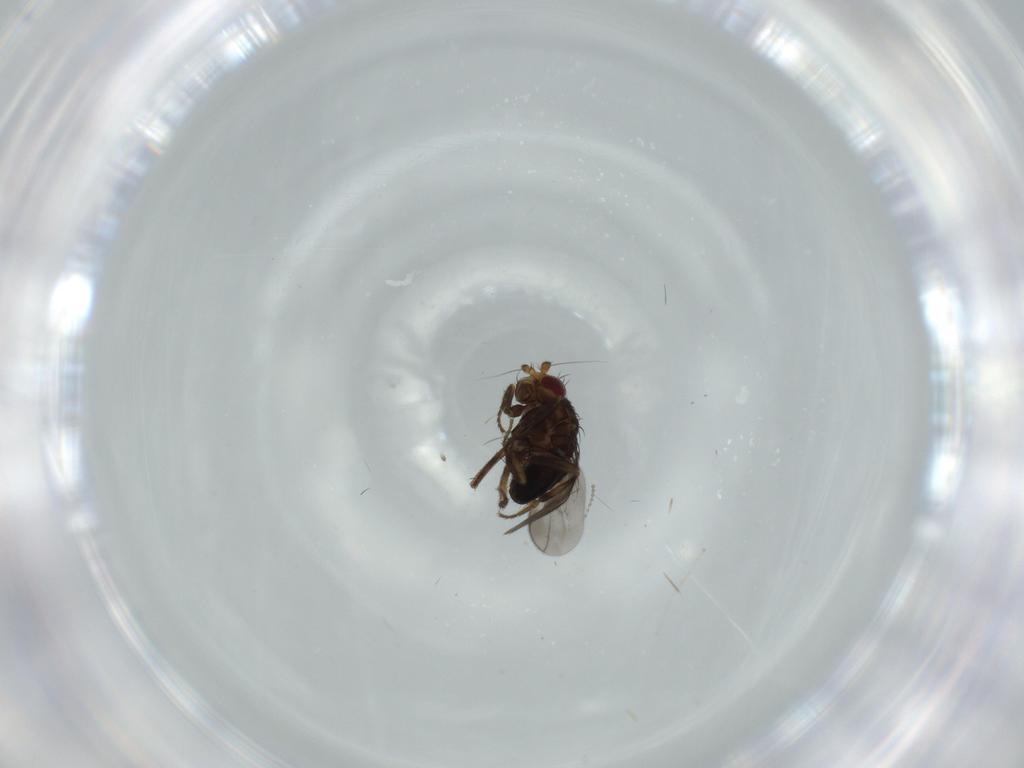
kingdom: Animalia
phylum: Arthropoda
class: Insecta
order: Diptera
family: Sphaeroceridae
